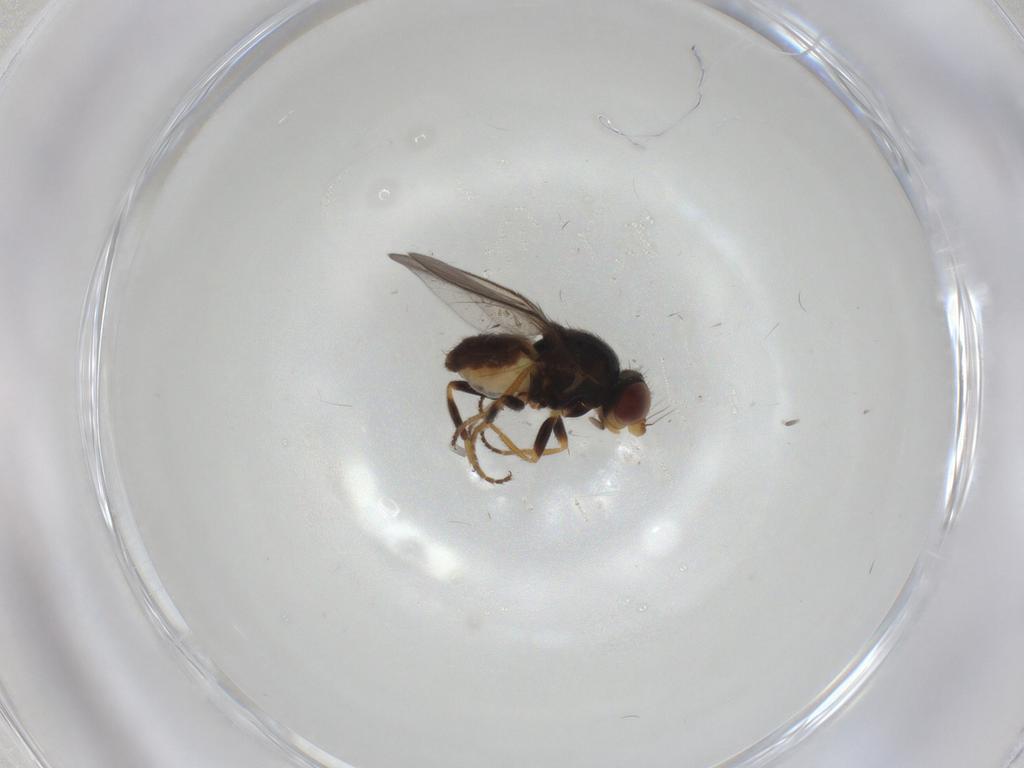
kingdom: Animalia
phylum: Arthropoda
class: Insecta
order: Diptera
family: Chloropidae
